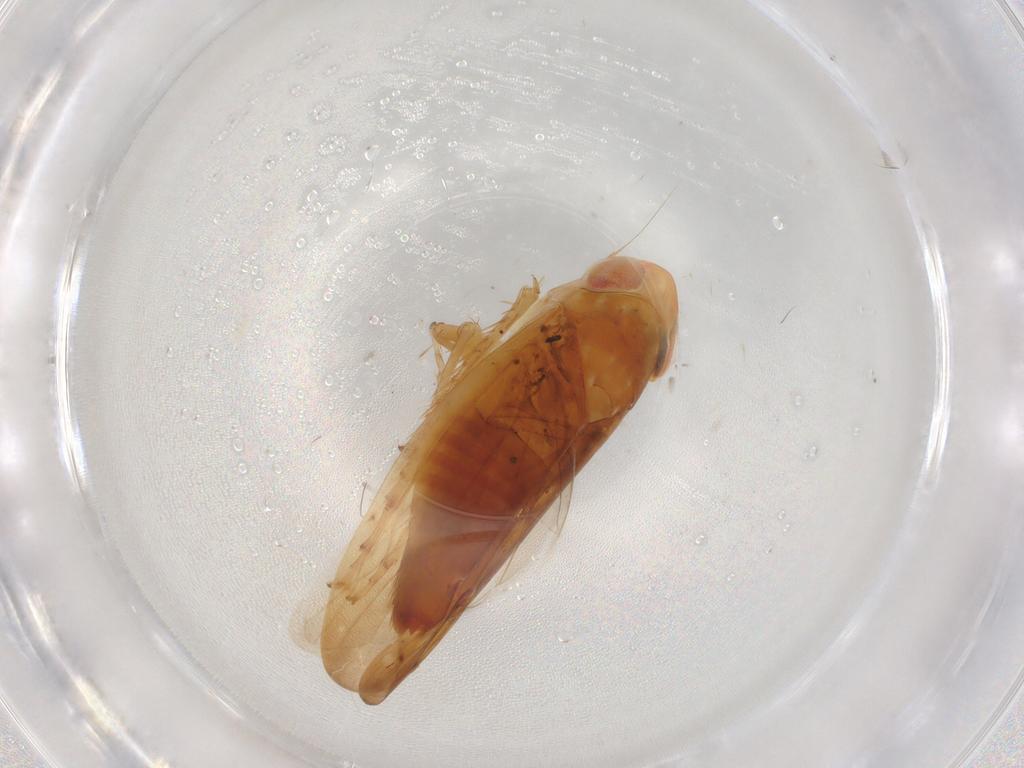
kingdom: Animalia
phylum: Arthropoda
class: Insecta
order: Hemiptera
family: Cicadellidae
